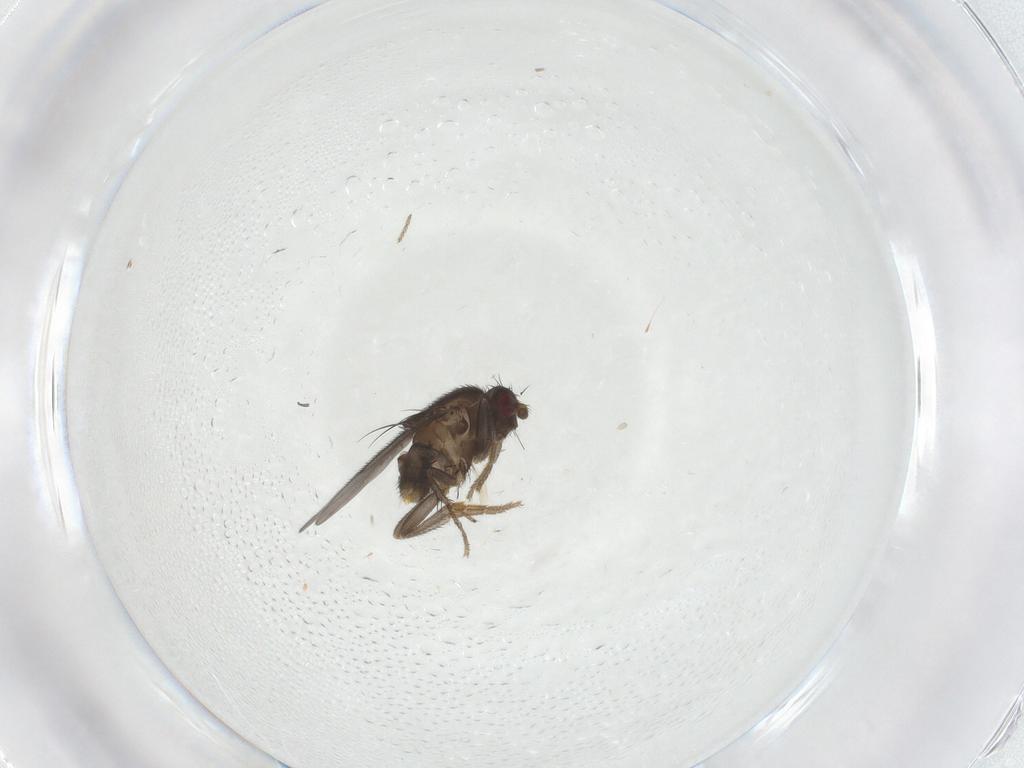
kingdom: Animalia
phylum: Arthropoda
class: Insecta
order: Diptera
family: Sphaeroceridae
